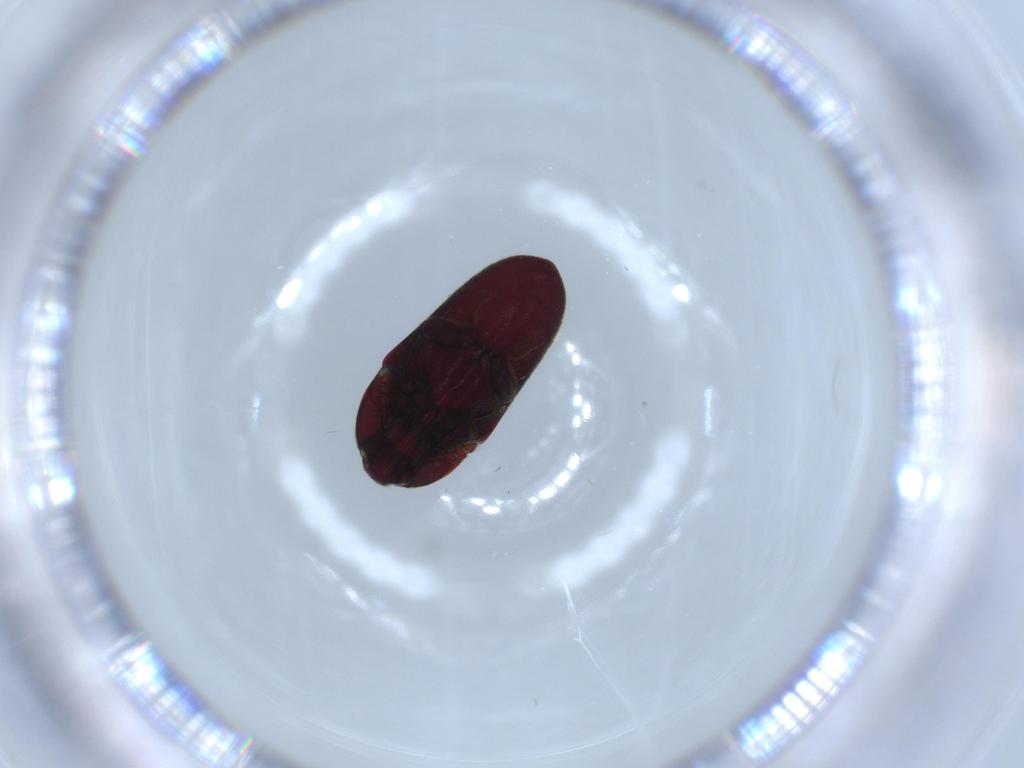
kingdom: Animalia
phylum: Arthropoda
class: Insecta
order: Coleoptera
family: Throscidae
